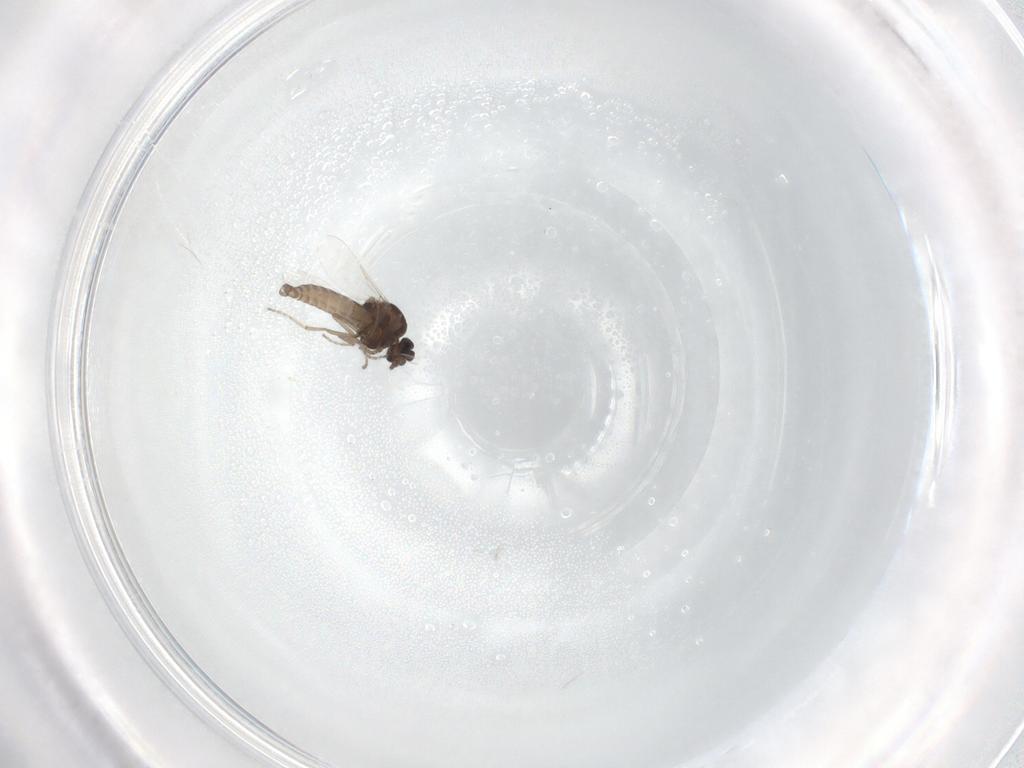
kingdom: Animalia
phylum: Arthropoda
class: Insecta
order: Diptera
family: Ceratopogonidae
